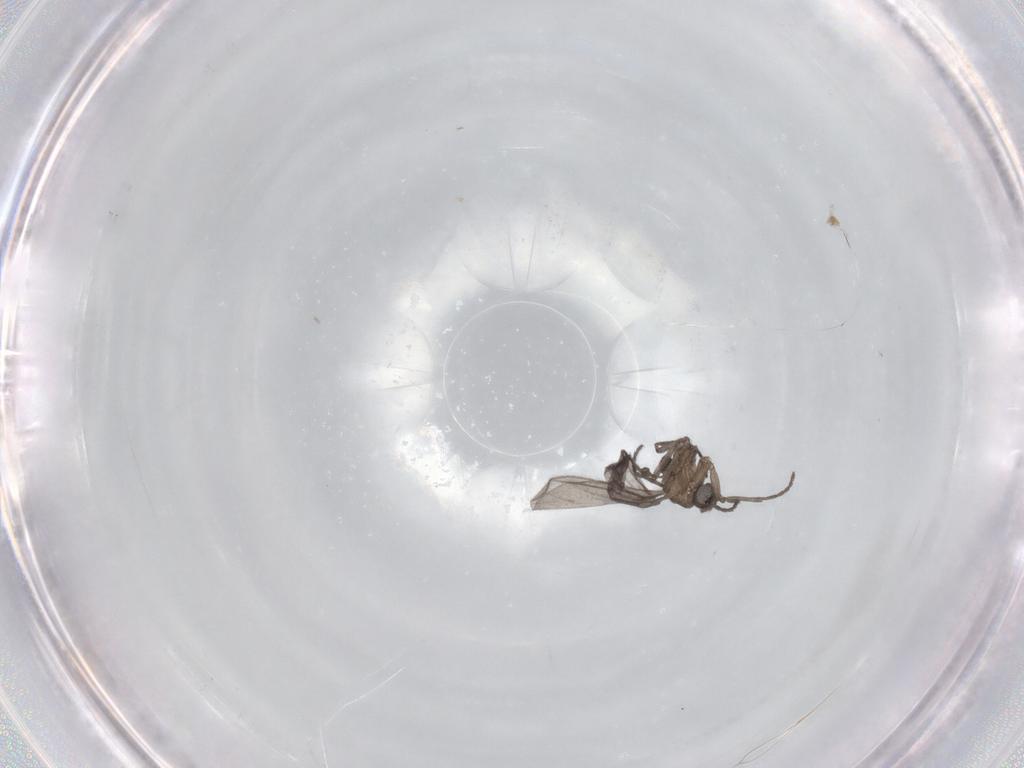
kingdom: Animalia
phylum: Arthropoda
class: Insecta
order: Diptera
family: Sciaridae
